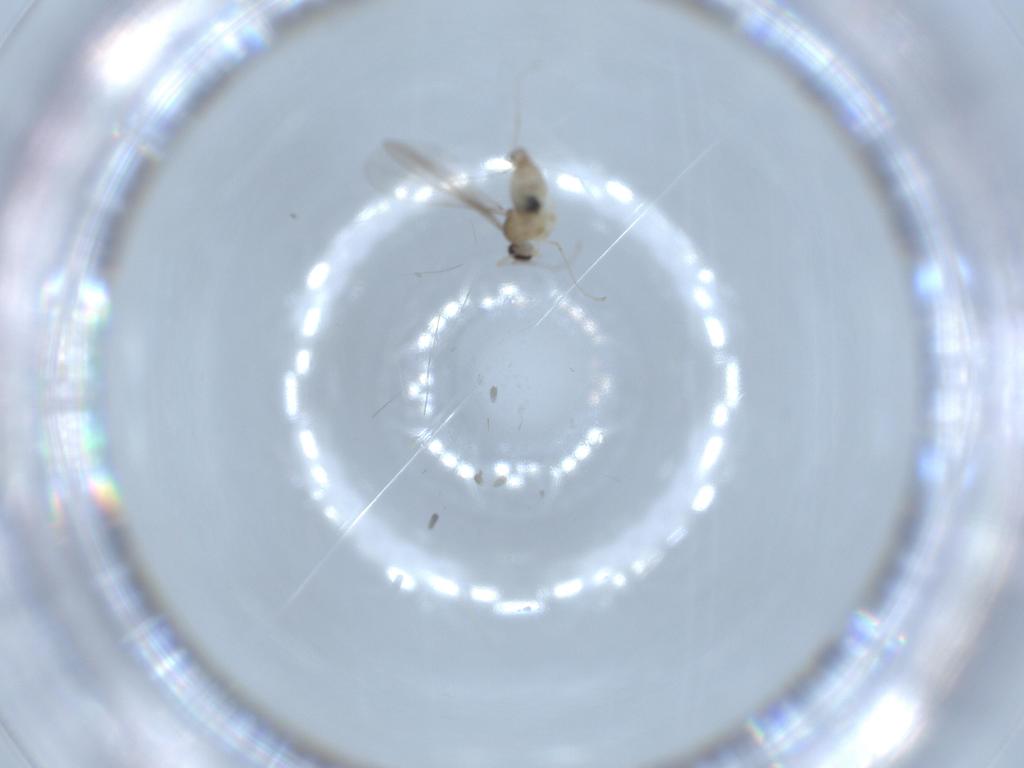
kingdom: Animalia
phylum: Arthropoda
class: Insecta
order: Diptera
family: Cecidomyiidae
